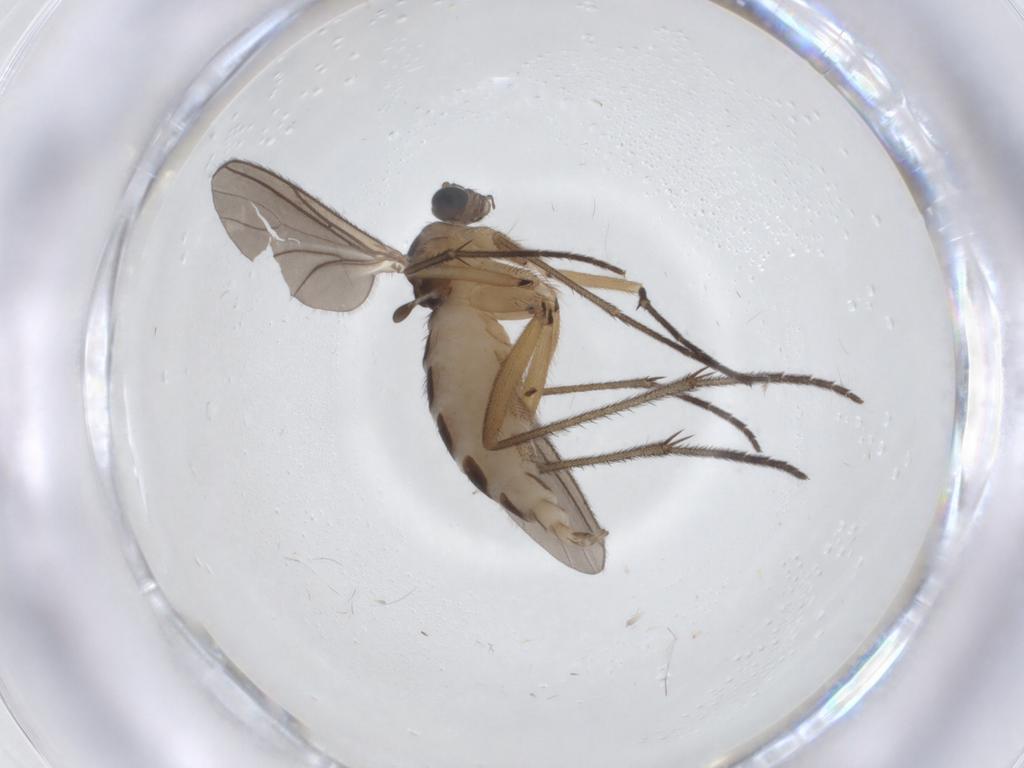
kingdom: Animalia
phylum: Arthropoda
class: Insecta
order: Diptera
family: Sciaridae
